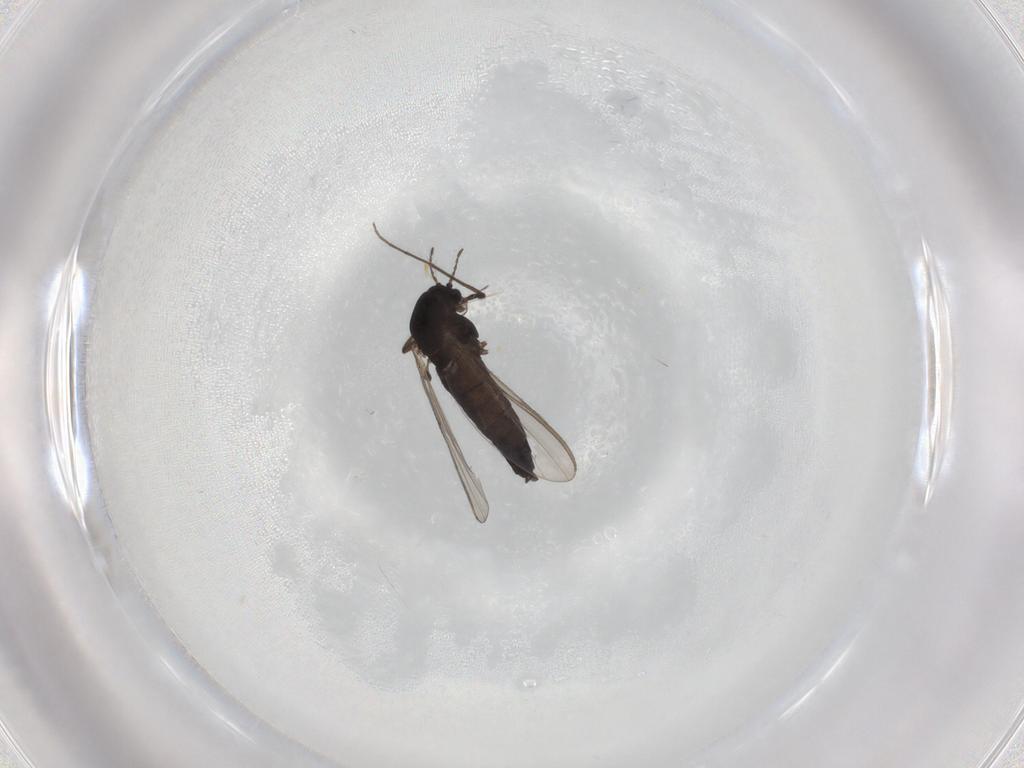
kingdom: Animalia
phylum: Arthropoda
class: Insecta
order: Diptera
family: Chironomidae
